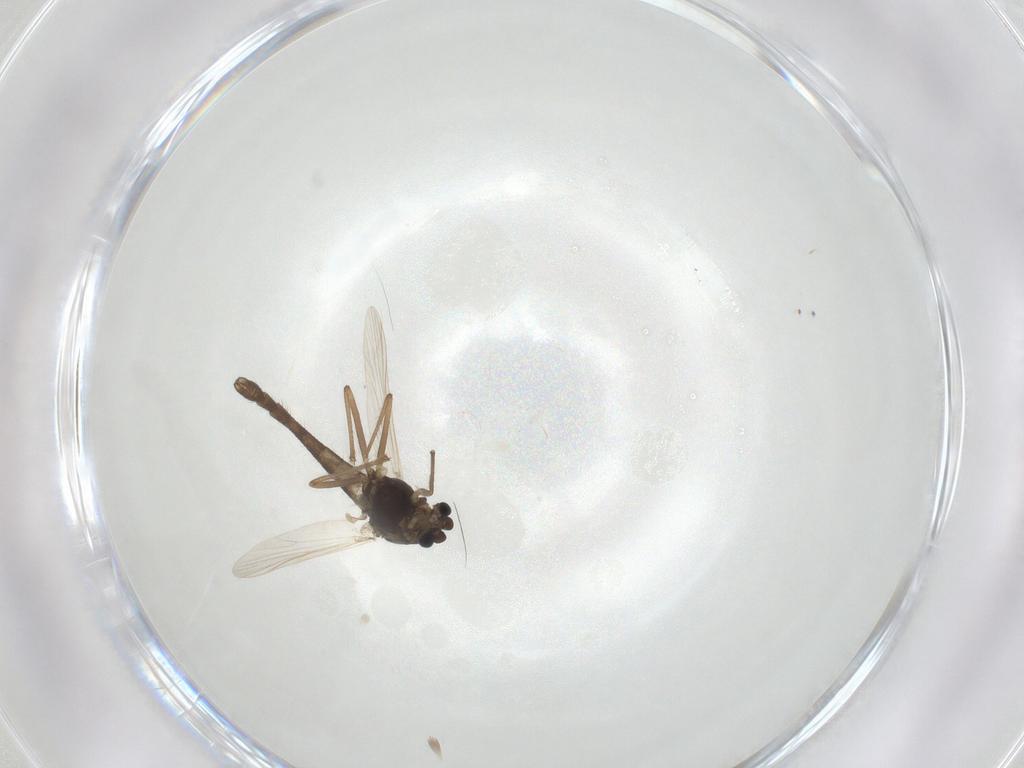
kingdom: Animalia
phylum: Arthropoda
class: Insecta
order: Diptera
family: Chironomidae
